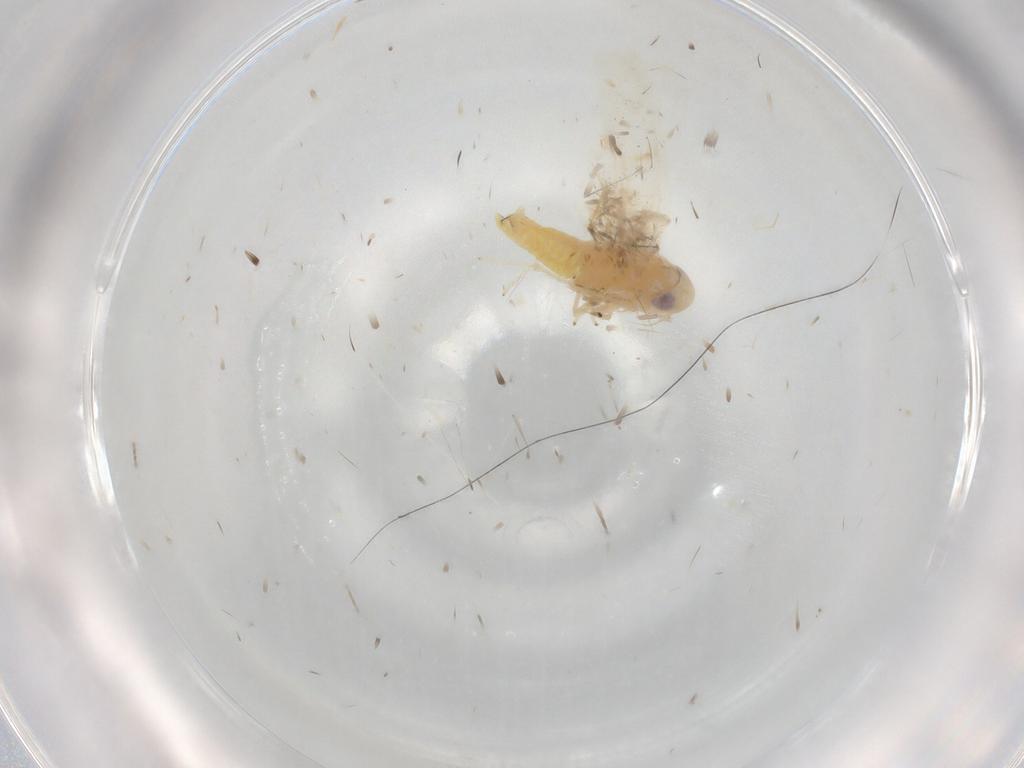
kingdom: Animalia
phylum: Arthropoda
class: Insecta
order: Hemiptera
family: Cicadellidae
